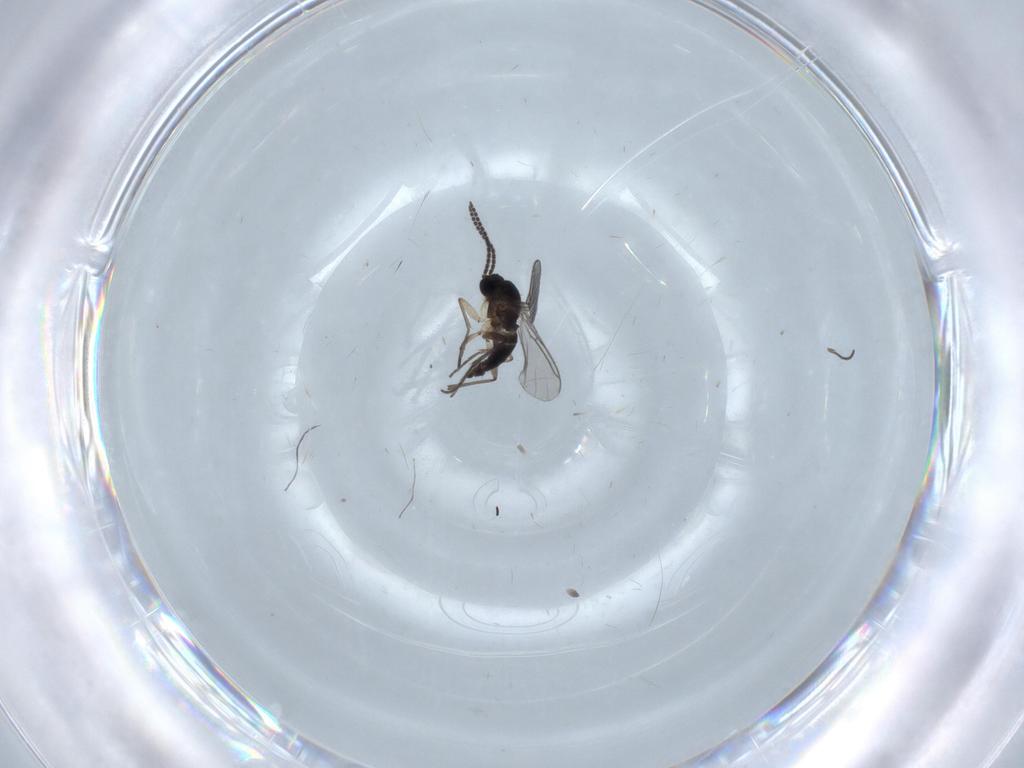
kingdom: Animalia
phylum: Arthropoda
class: Insecta
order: Diptera
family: Sciaridae
